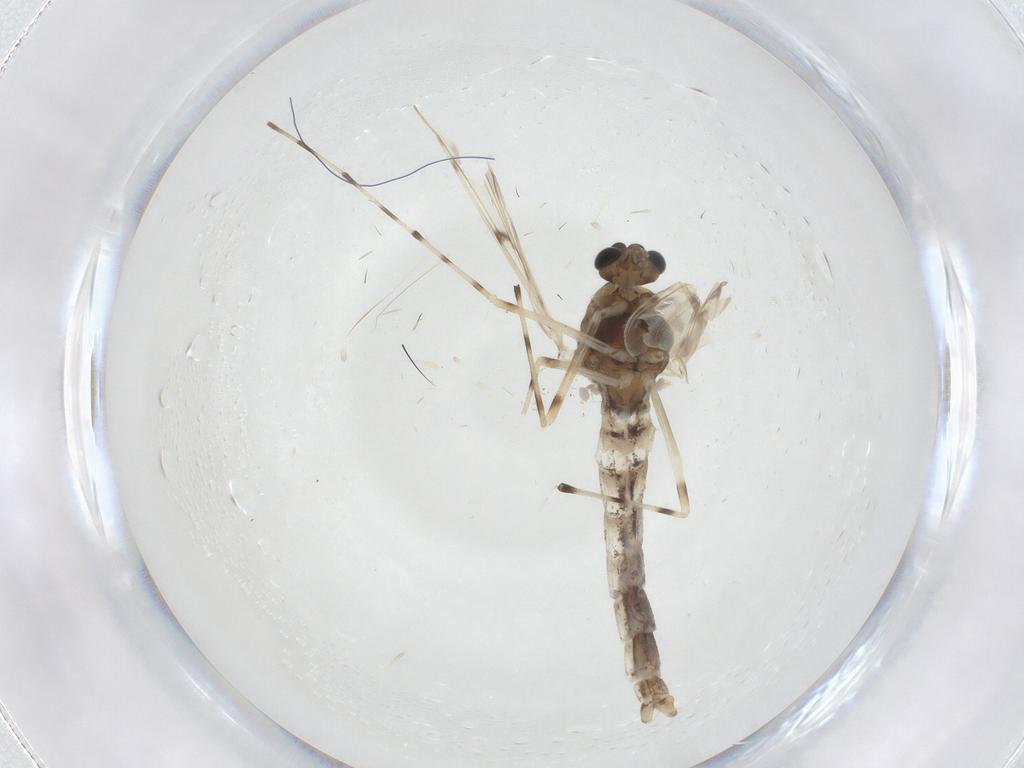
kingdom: Animalia
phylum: Arthropoda
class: Insecta
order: Diptera
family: Chironomidae
